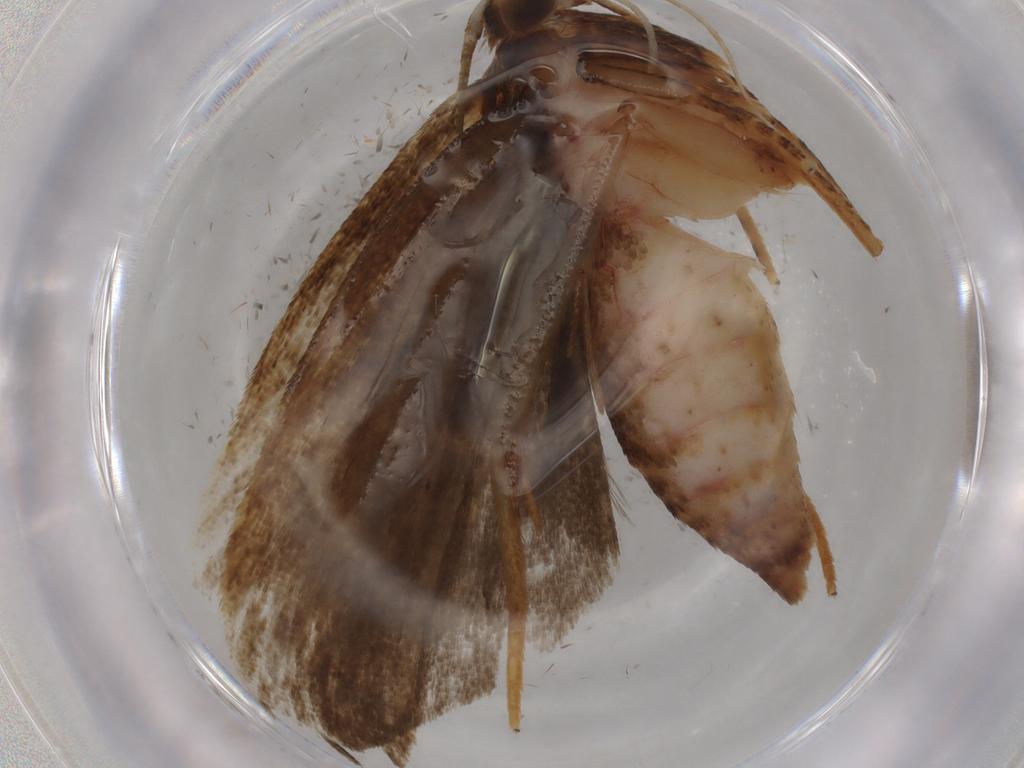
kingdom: Animalia
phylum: Arthropoda
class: Insecta
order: Lepidoptera
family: Autostichidae
